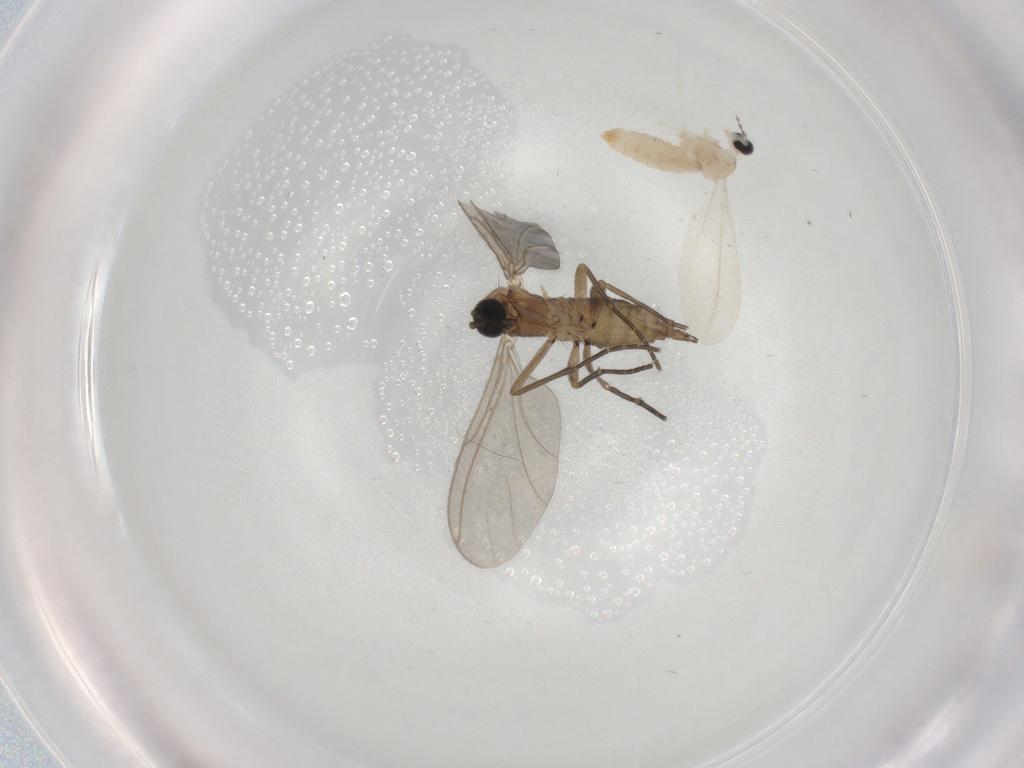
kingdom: Animalia
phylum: Arthropoda
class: Insecta
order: Diptera
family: Cecidomyiidae
